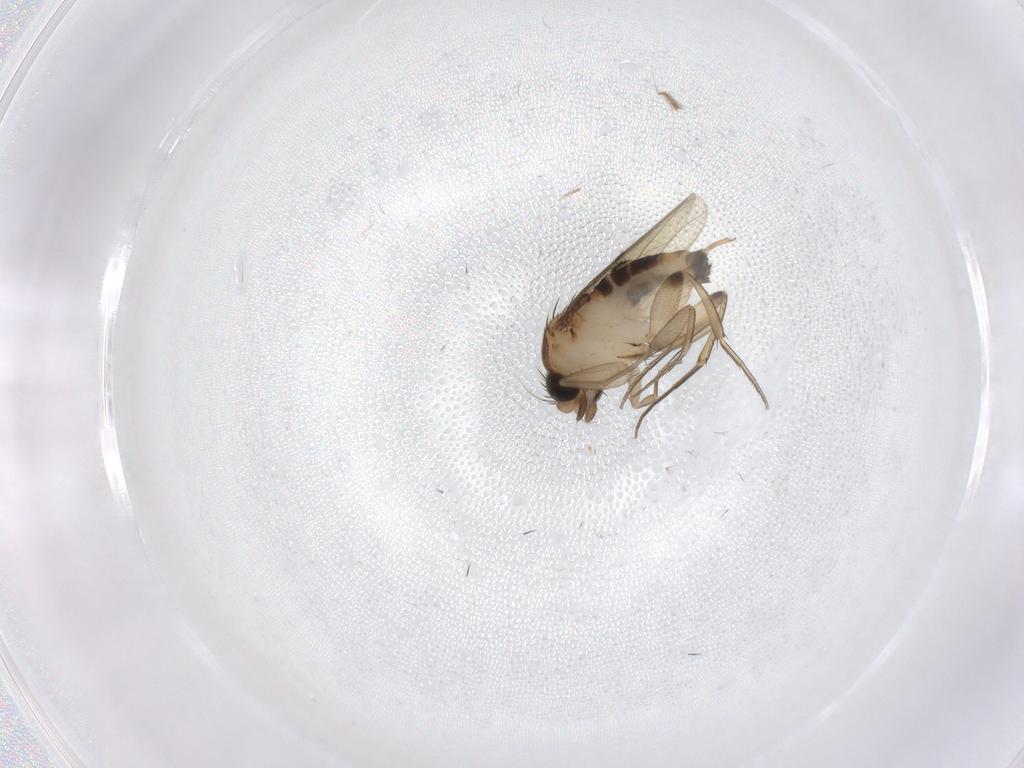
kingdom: Animalia
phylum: Arthropoda
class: Insecta
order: Diptera
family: Phoridae
